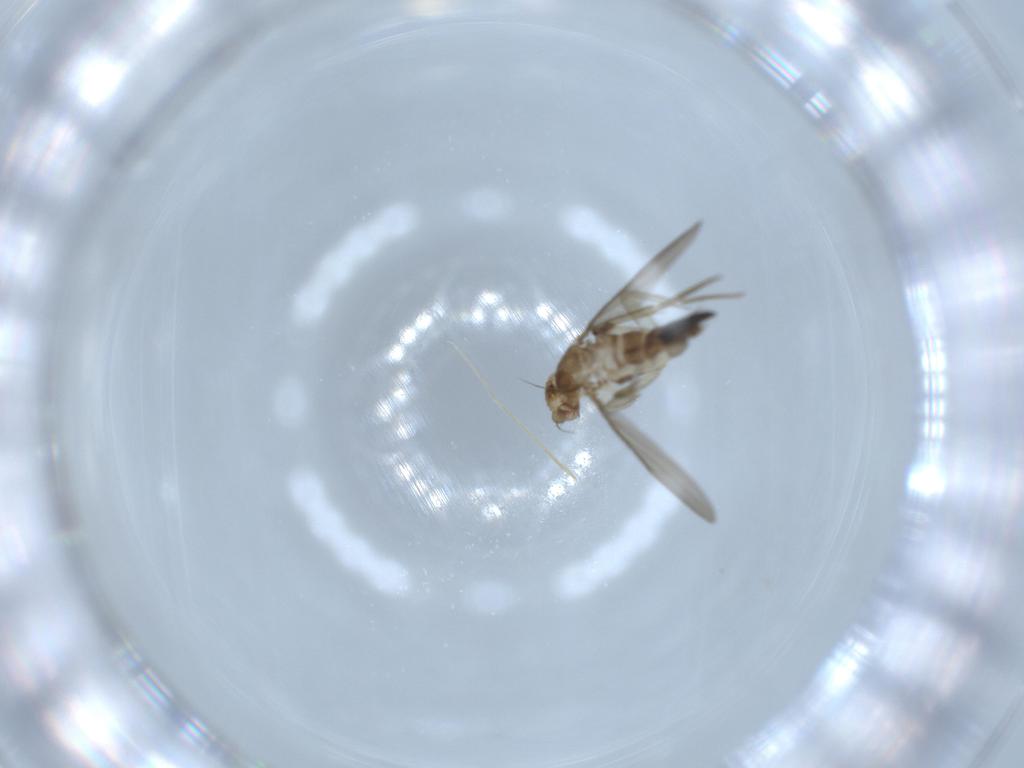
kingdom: Animalia
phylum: Arthropoda
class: Insecta
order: Diptera
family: Phoridae
